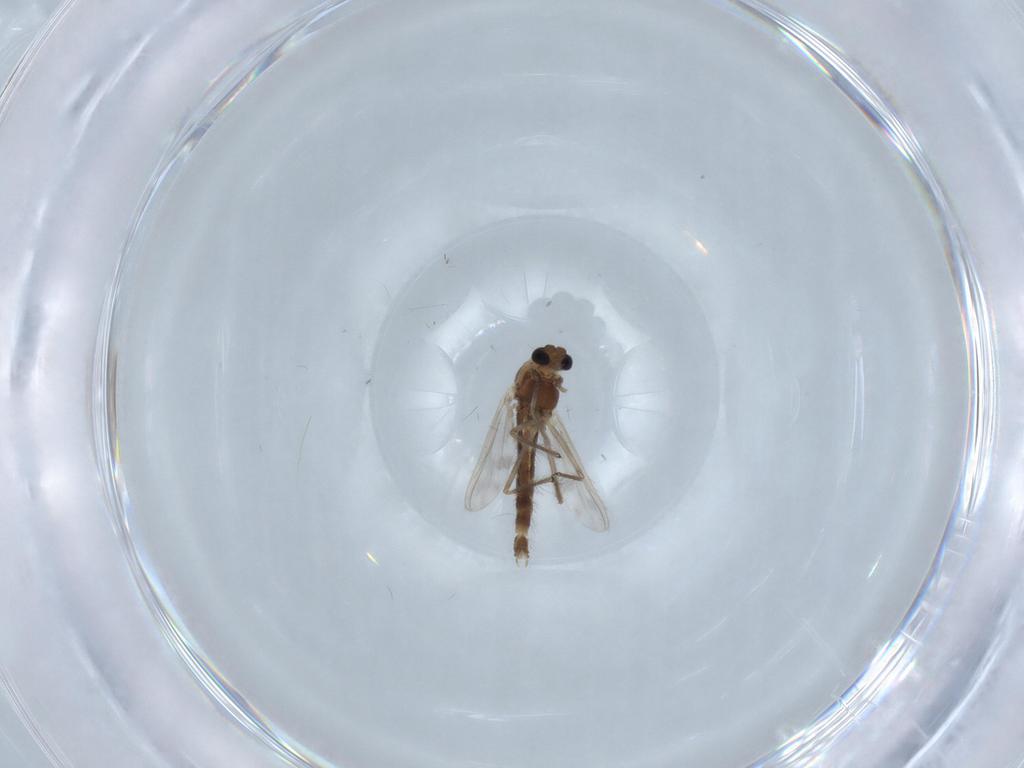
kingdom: Animalia
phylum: Arthropoda
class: Insecta
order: Diptera
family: Chironomidae
